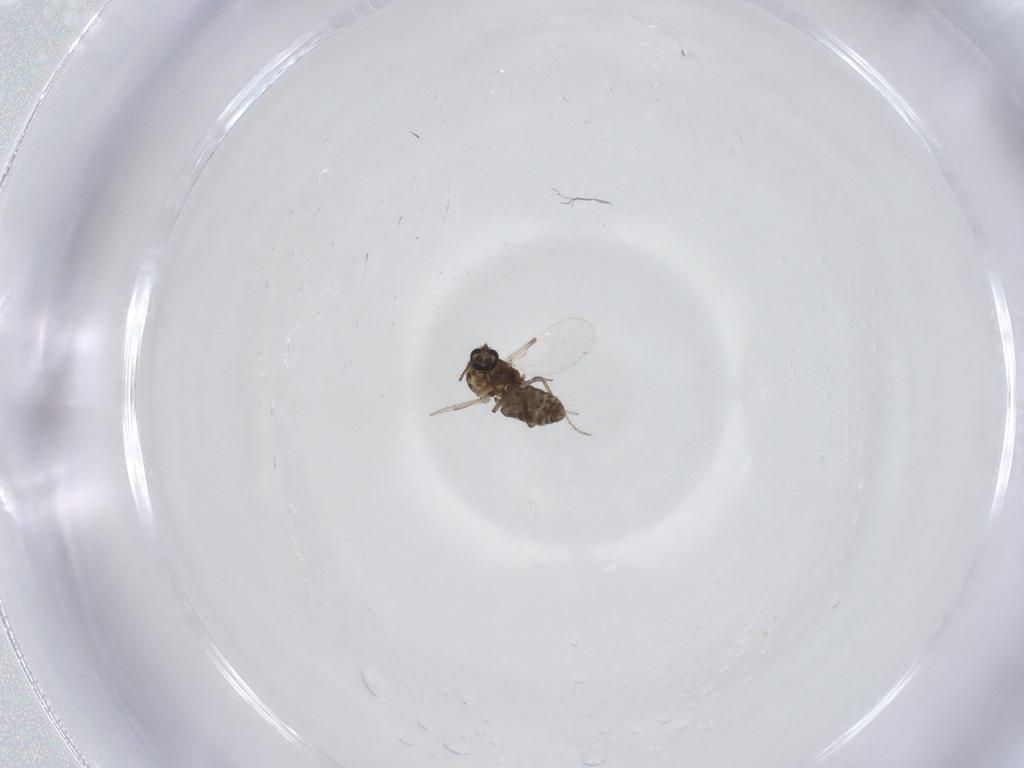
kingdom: Animalia
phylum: Arthropoda
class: Insecta
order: Diptera
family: Ceratopogonidae
